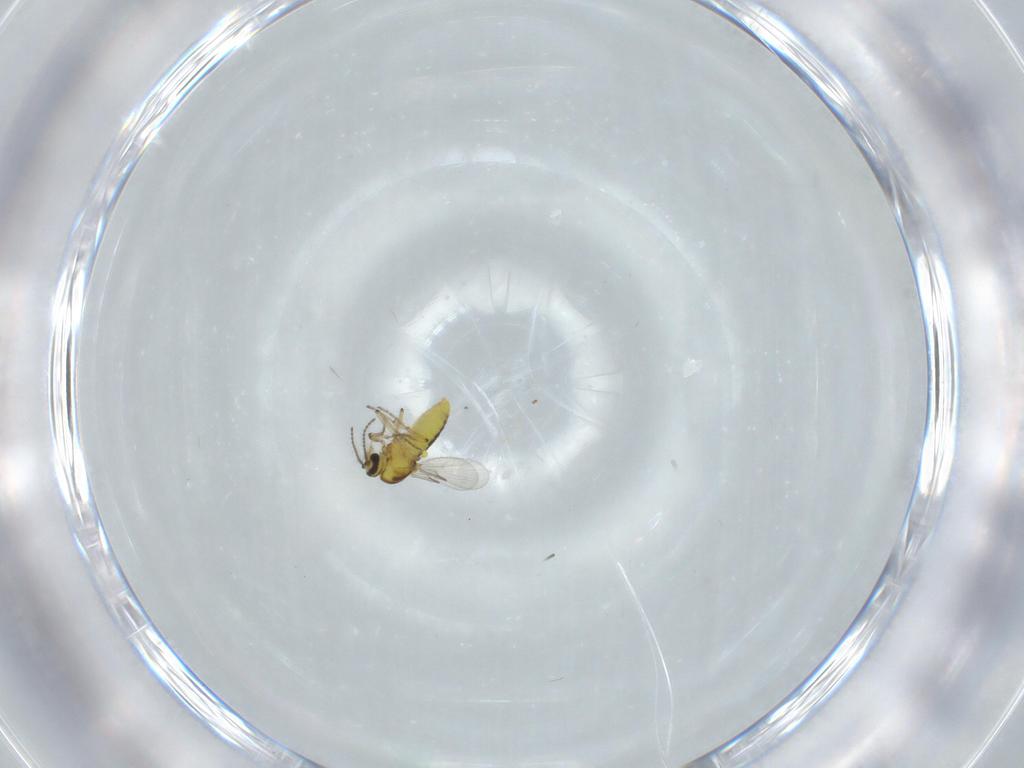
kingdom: Animalia
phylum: Arthropoda
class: Insecta
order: Diptera
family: Ceratopogonidae
